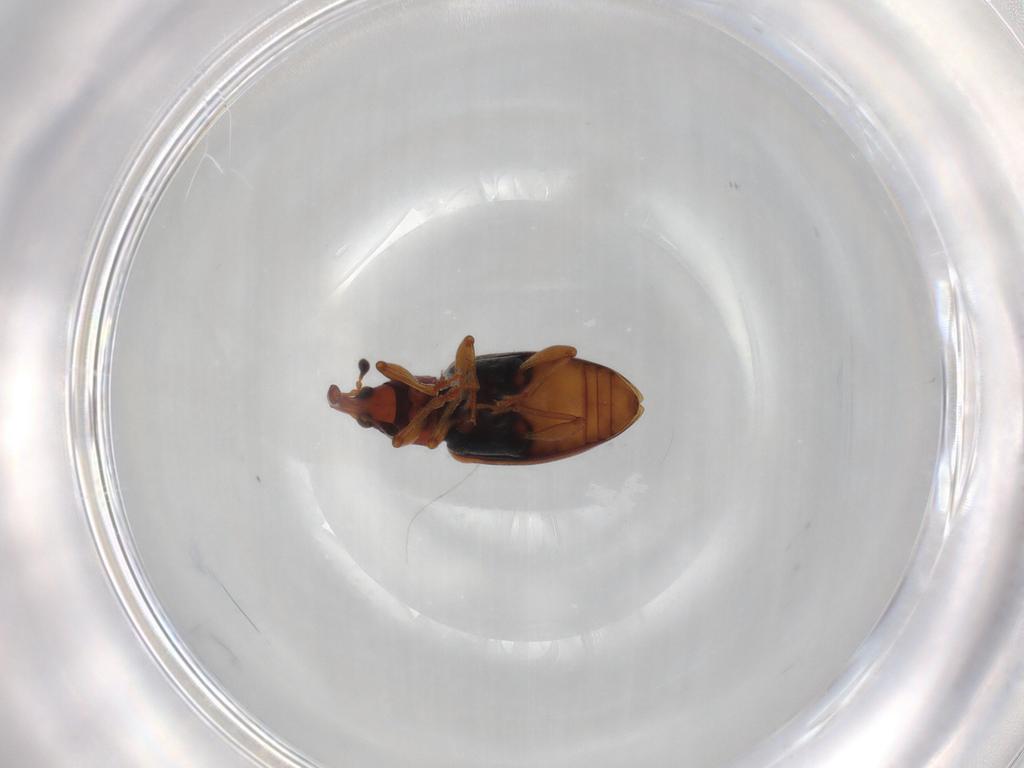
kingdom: Animalia
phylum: Arthropoda
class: Insecta
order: Coleoptera
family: Curculionidae
